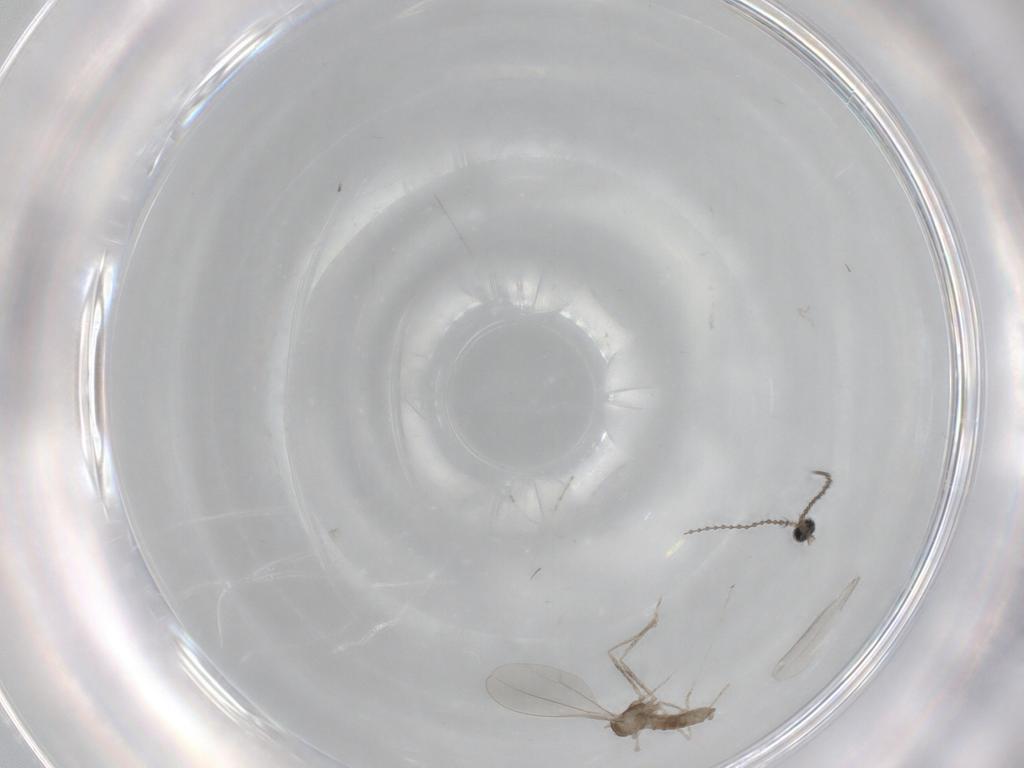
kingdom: Animalia
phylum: Arthropoda
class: Insecta
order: Diptera
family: Cecidomyiidae
